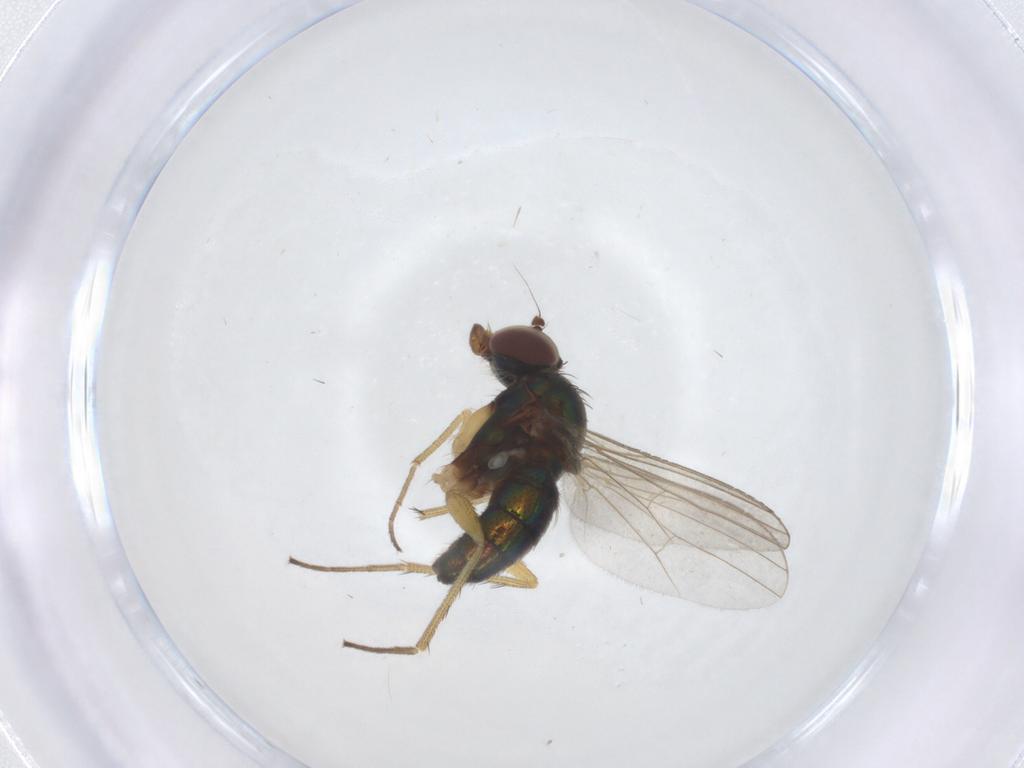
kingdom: Animalia
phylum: Arthropoda
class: Insecta
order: Diptera
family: Dolichopodidae
